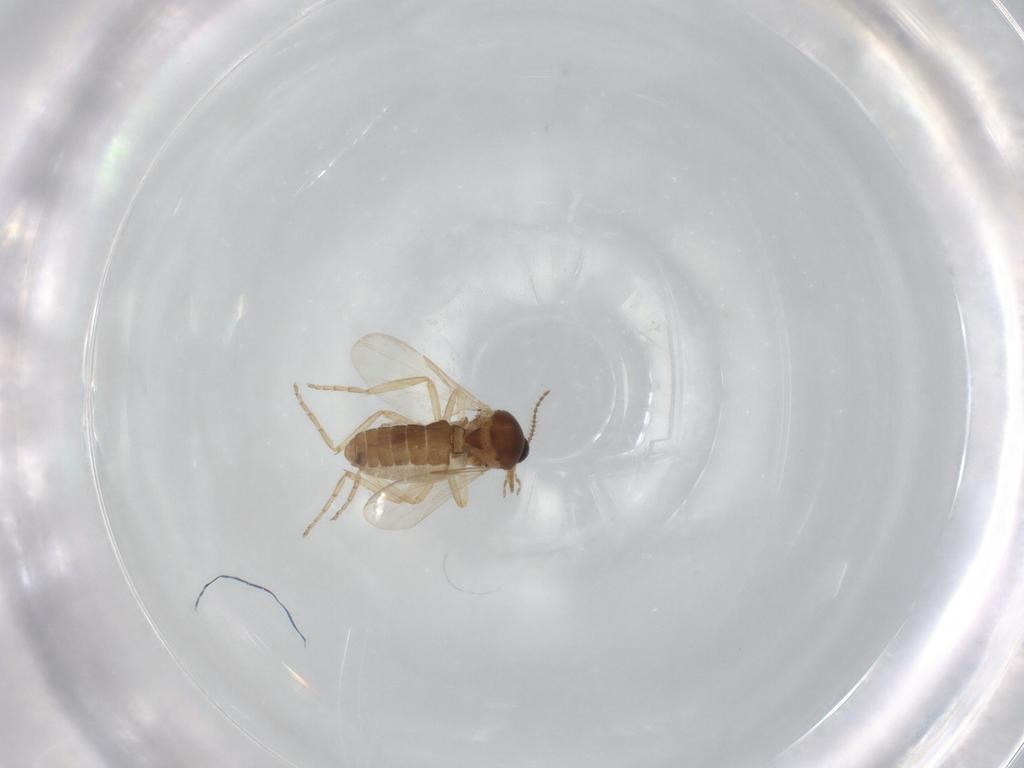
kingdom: Animalia
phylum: Arthropoda
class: Insecta
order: Diptera
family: Ceratopogonidae
